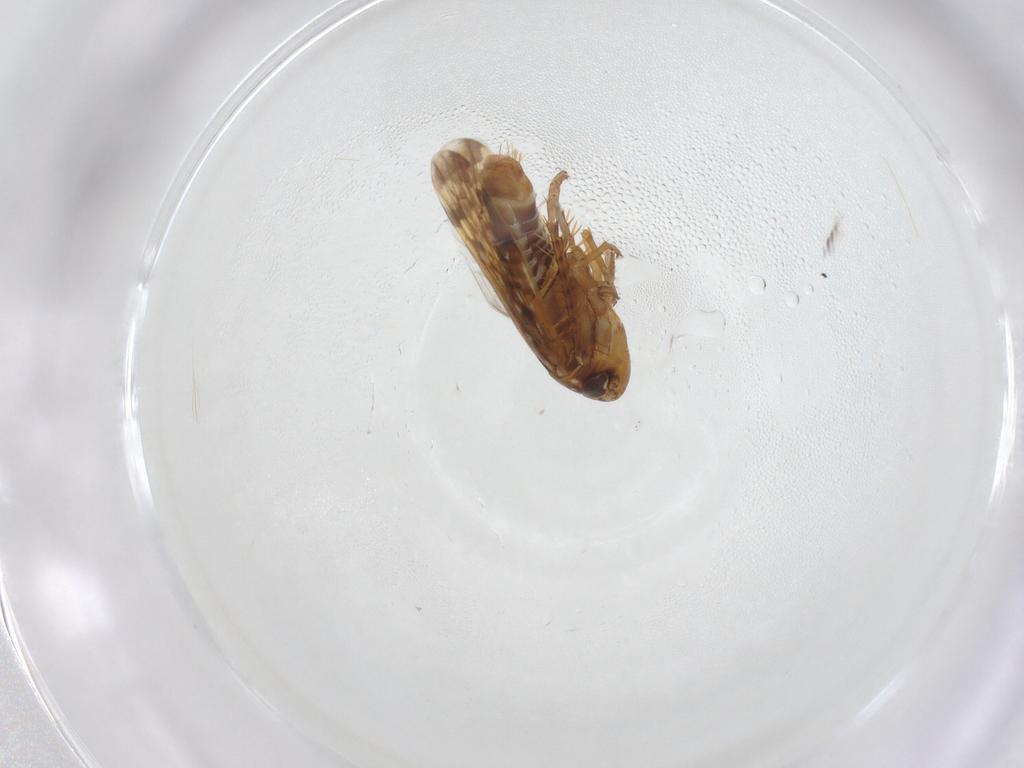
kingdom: Animalia
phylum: Arthropoda
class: Insecta
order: Hemiptera
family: Cicadellidae
